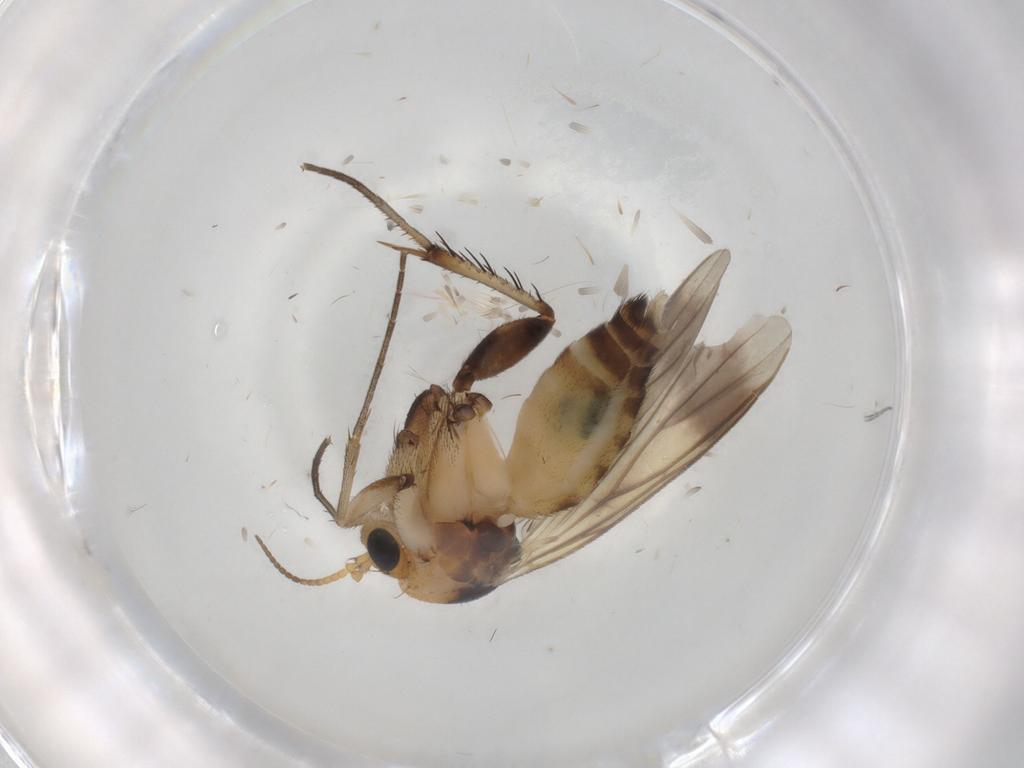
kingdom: Animalia
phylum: Arthropoda
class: Insecta
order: Diptera
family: Mycetophilidae
